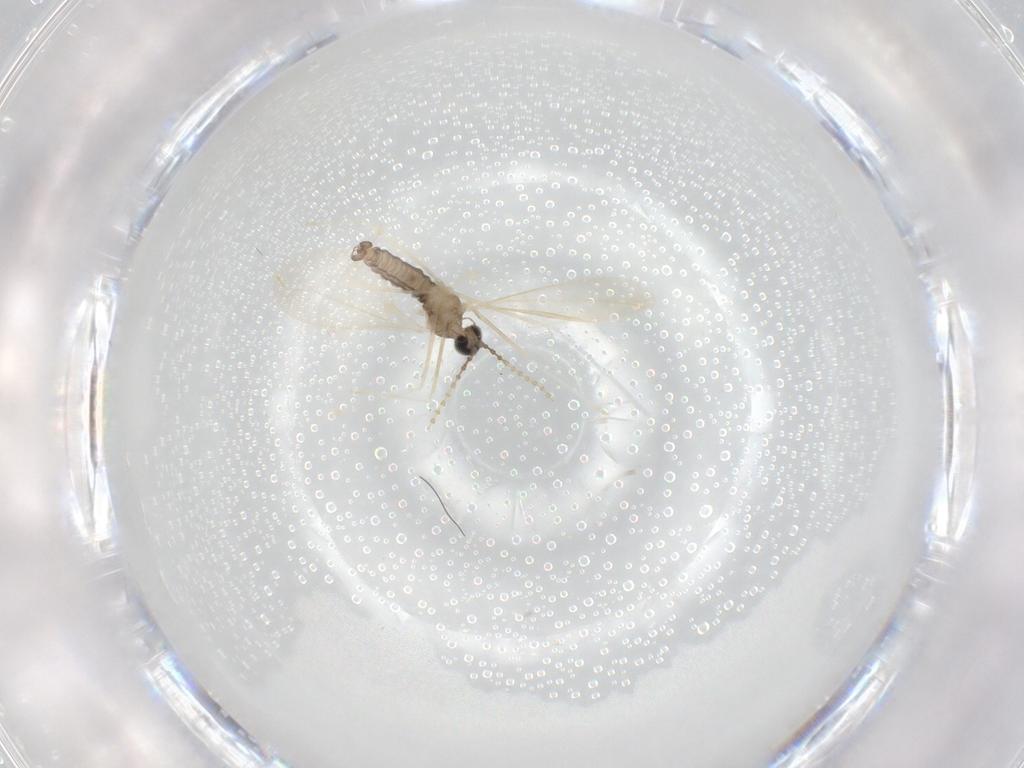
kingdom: Animalia
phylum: Arthropoda
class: Insecta
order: Diptera
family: Cecidomyiidae
